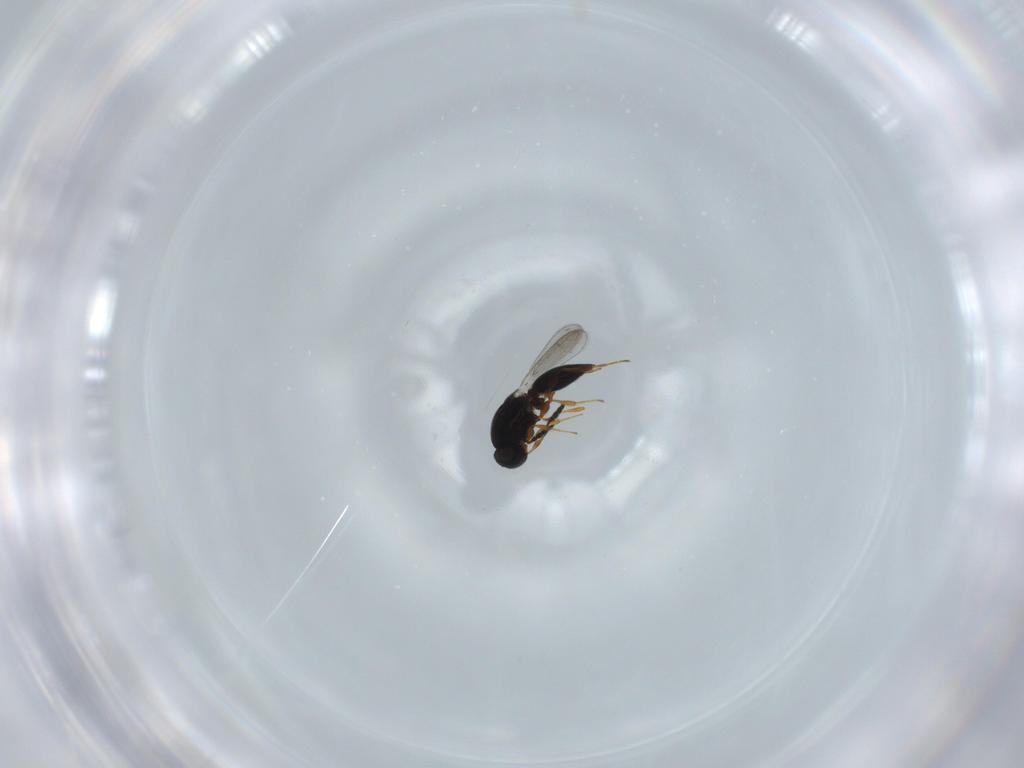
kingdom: Animalia
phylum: Arthropoda
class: Insecta
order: Hymenoptera
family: Platygastridae
